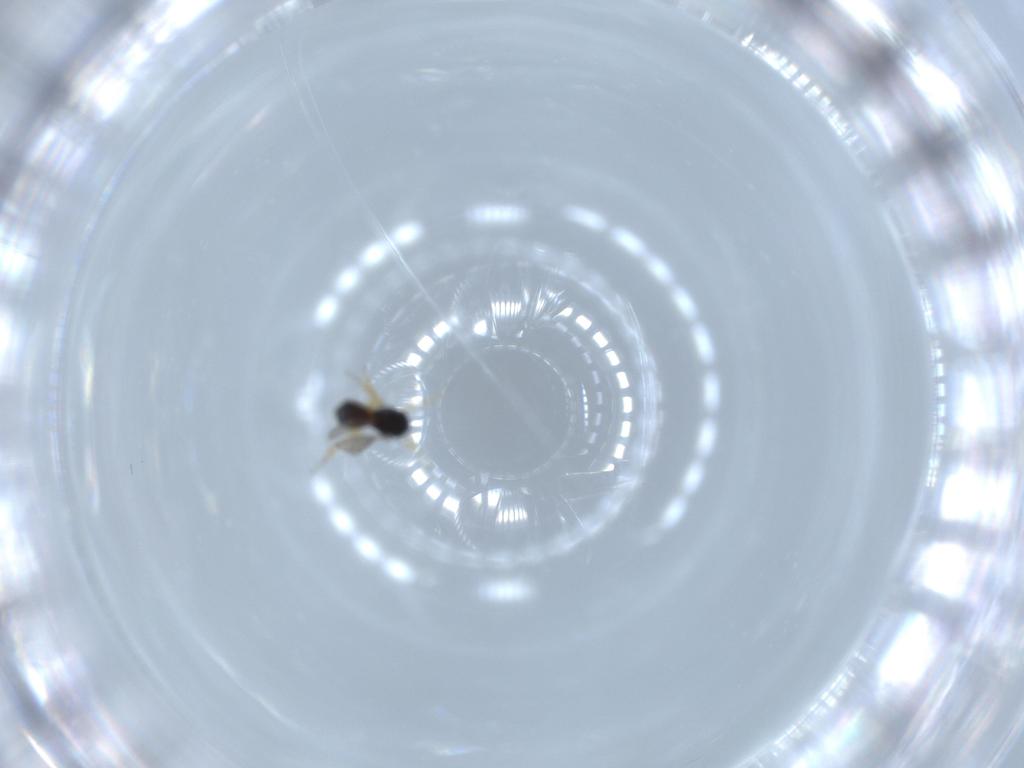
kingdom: Animalia
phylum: Arthropoda
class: Insecta
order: Hymenoptera
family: Scelionidae
